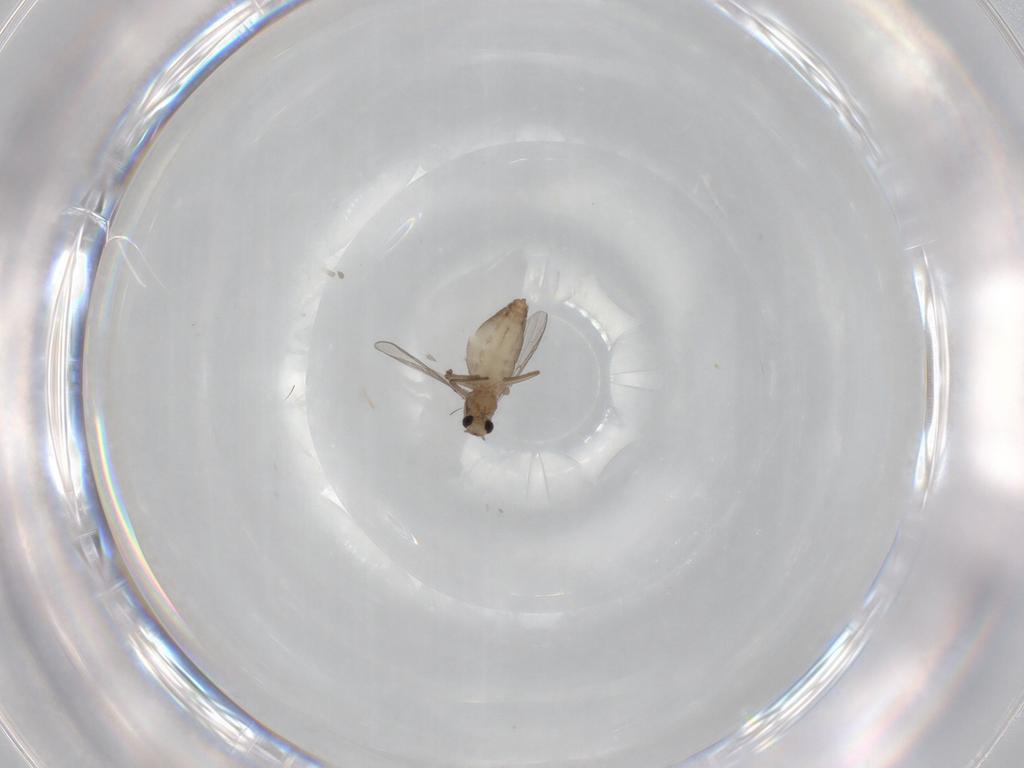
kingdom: Animalia
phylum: Arthropoda
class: Insecta
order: Diptera
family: Chironomidae
